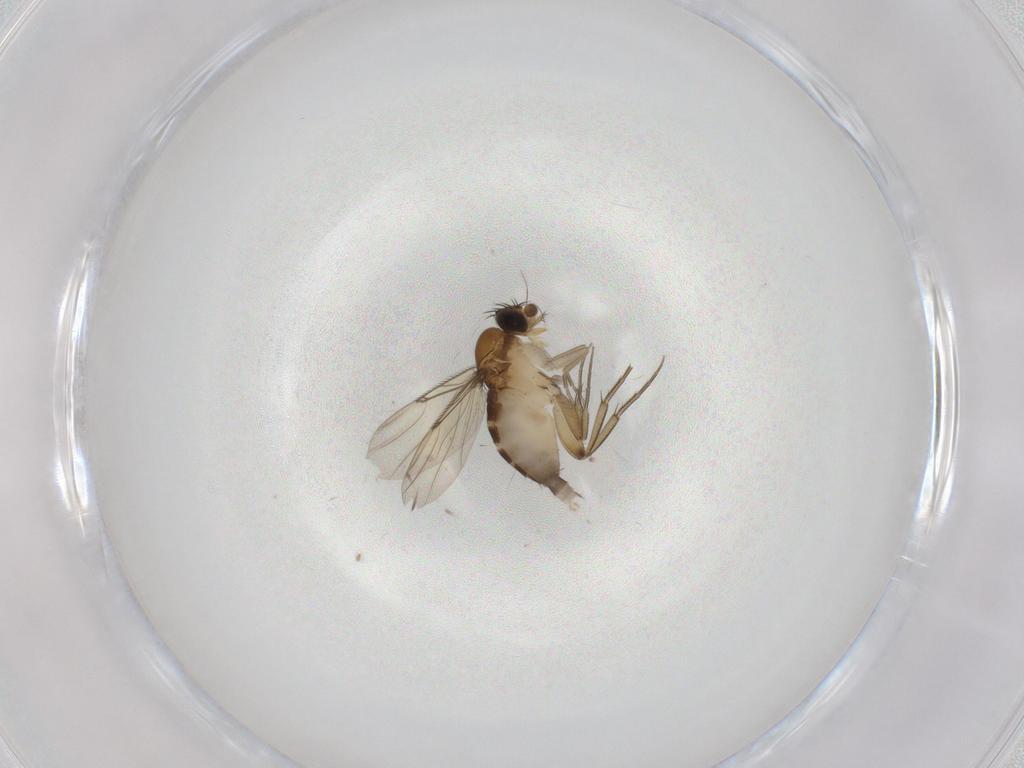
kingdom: Animalia
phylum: Arthropoda
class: Insecta
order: Diptera
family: Phoridae
